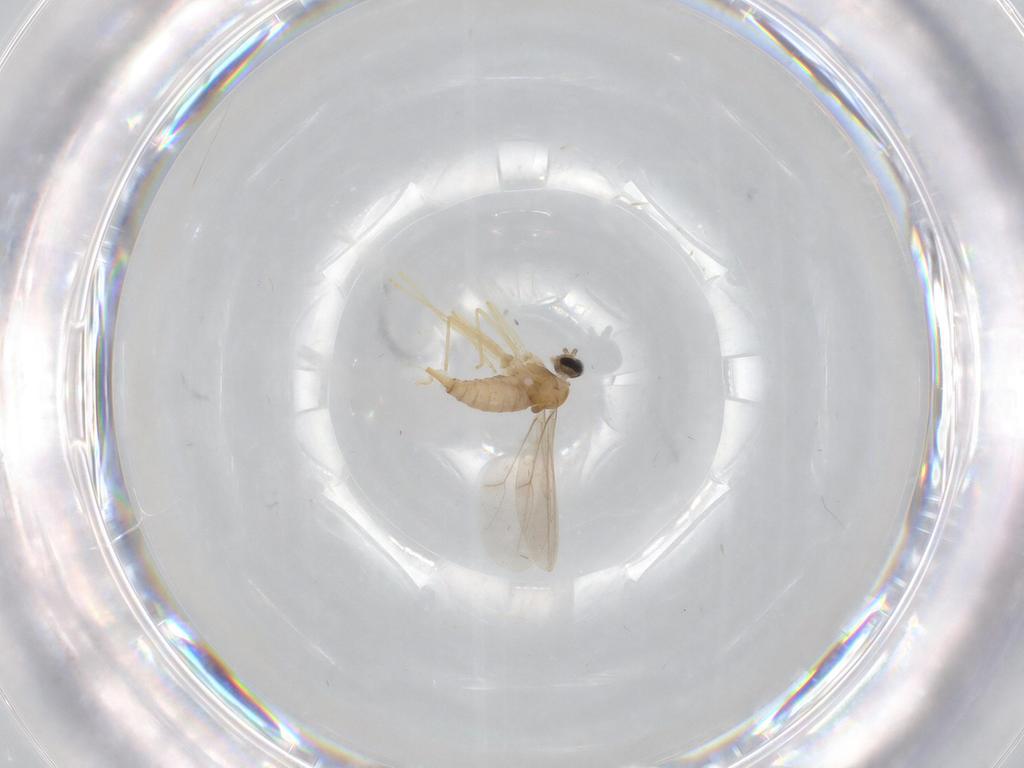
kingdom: Animalia
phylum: Arthropoda
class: Insecta
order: Diptera
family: Cecidomyiidae
